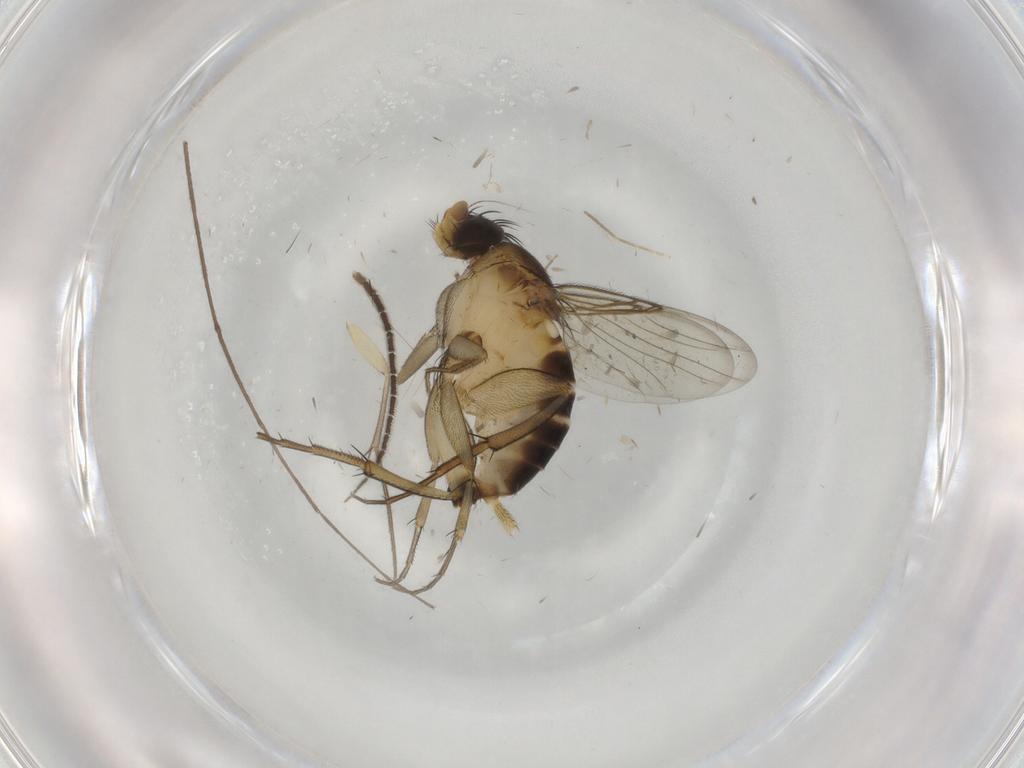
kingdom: Animalia
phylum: Arthropoda
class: Insecta
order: Diptera
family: Phoridae
